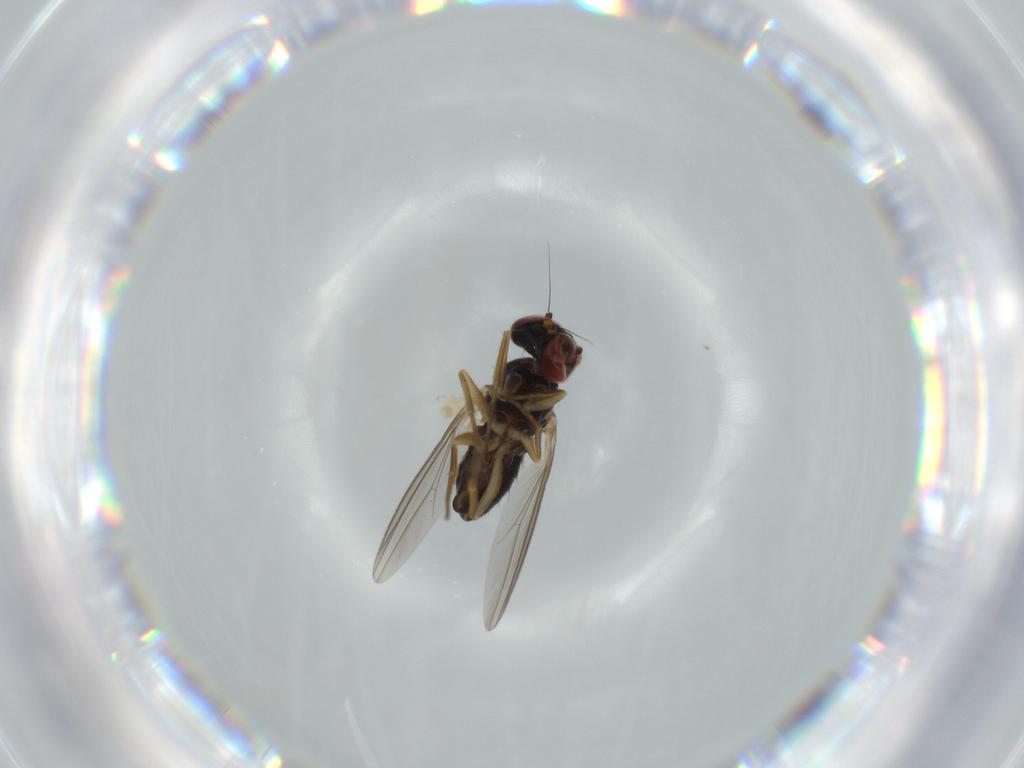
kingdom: Animalia
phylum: Arthropoda
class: Insecta
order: Diptera
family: Dolichopodidae
